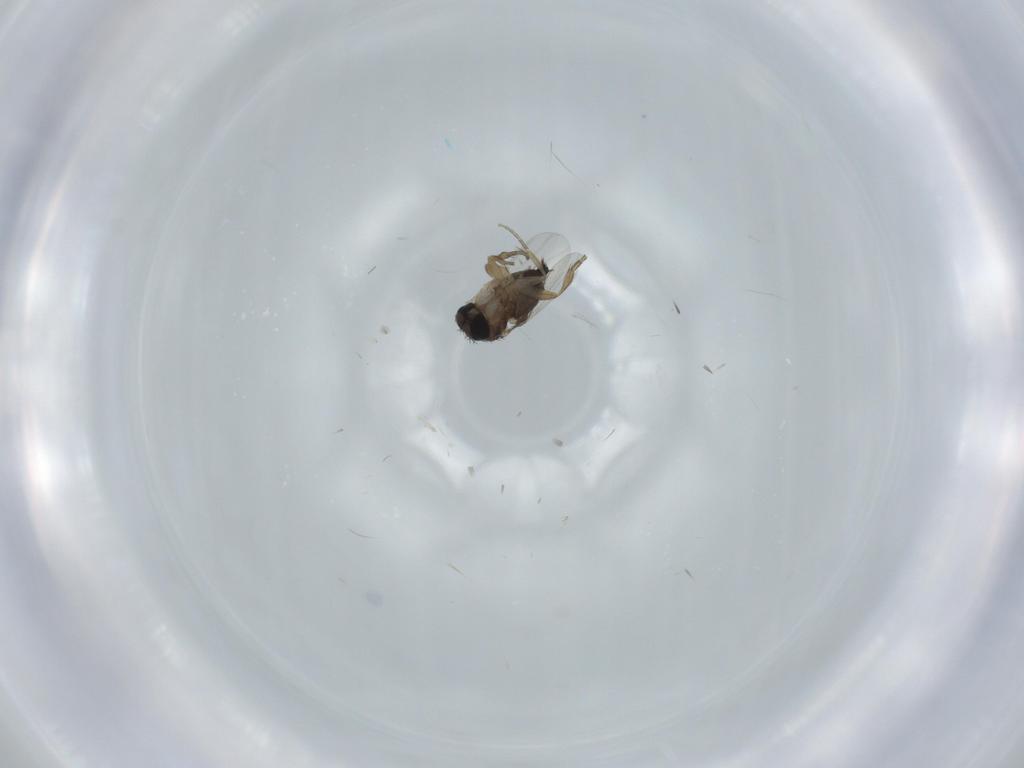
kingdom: Animalia
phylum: Arthropoda
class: Insecta
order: Diptera
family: Phoridae
